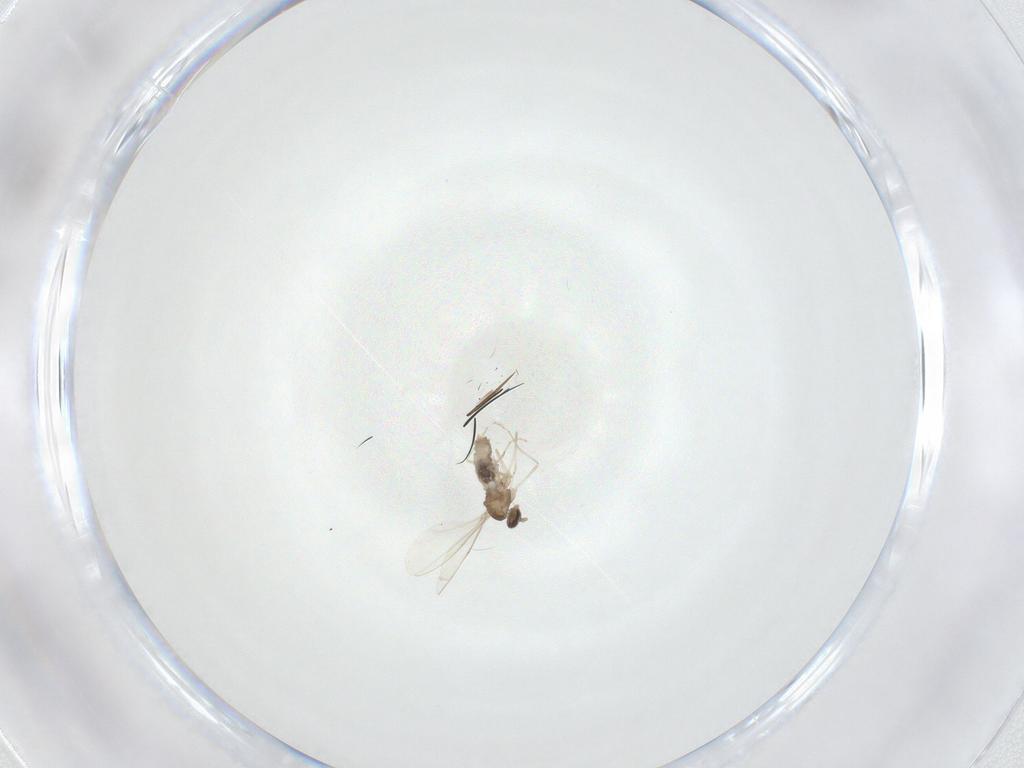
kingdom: Animalia
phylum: Arthropoda
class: Insecta
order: Diptera
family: Cecidomyiidae
